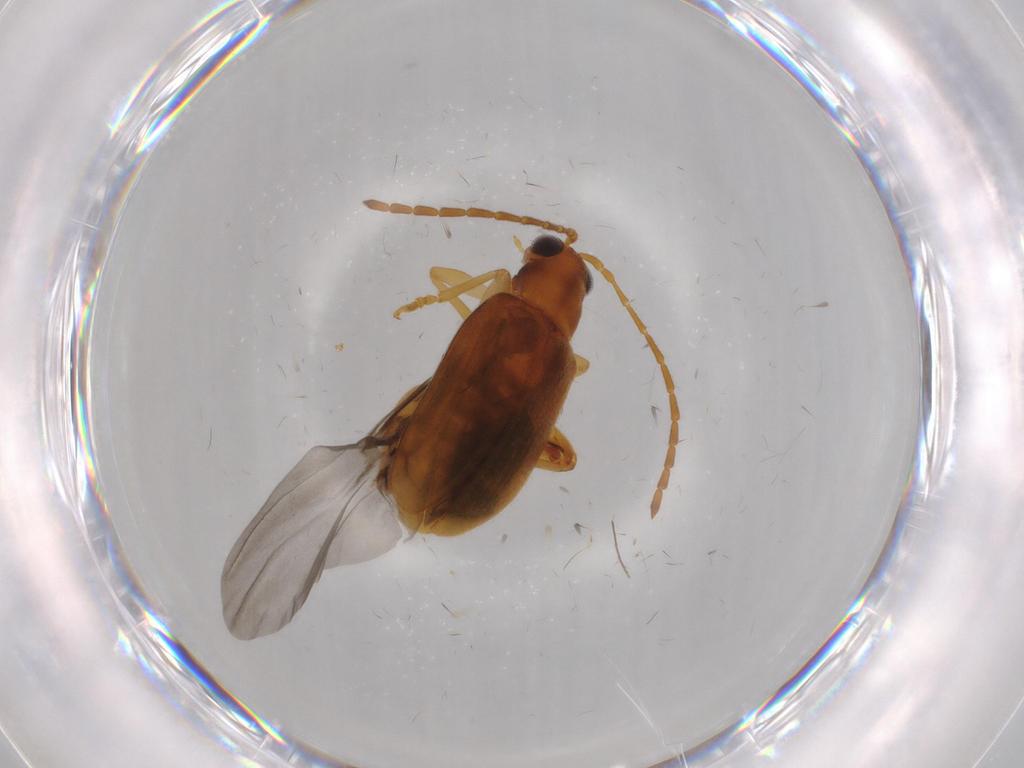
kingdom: Animalia
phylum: Arthropoda
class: Insecta
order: Coleoptera
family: Chrysomelidae
